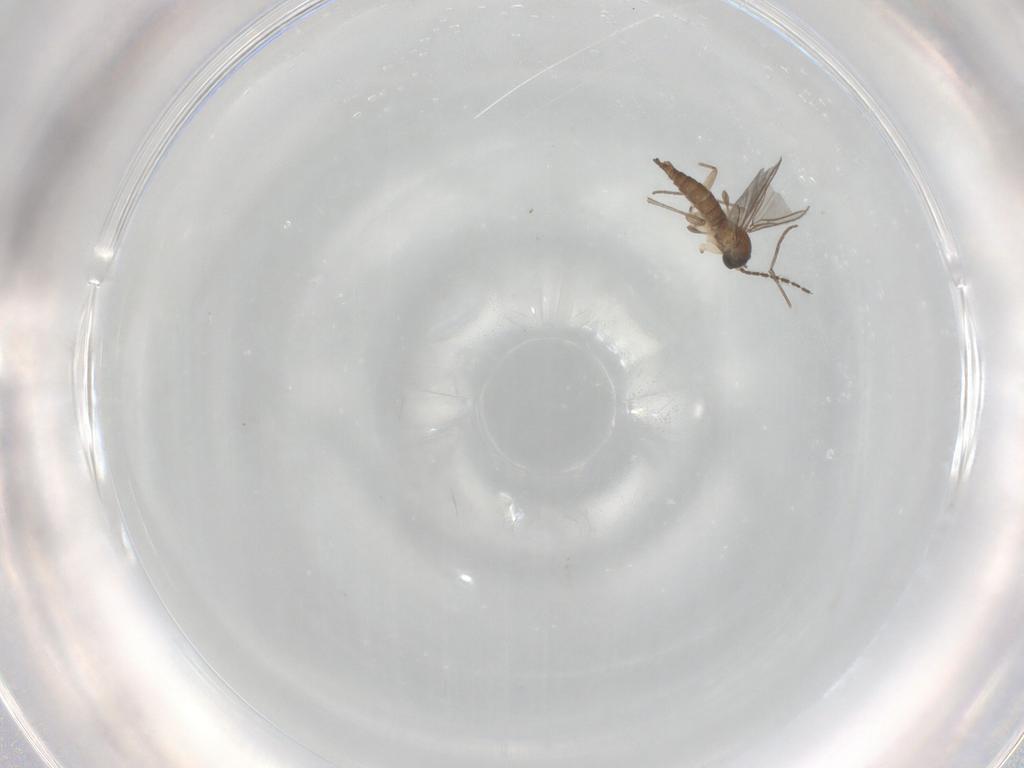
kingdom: Animalia
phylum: Arthropoda
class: Insecta
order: Diptera
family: Sciaridae
